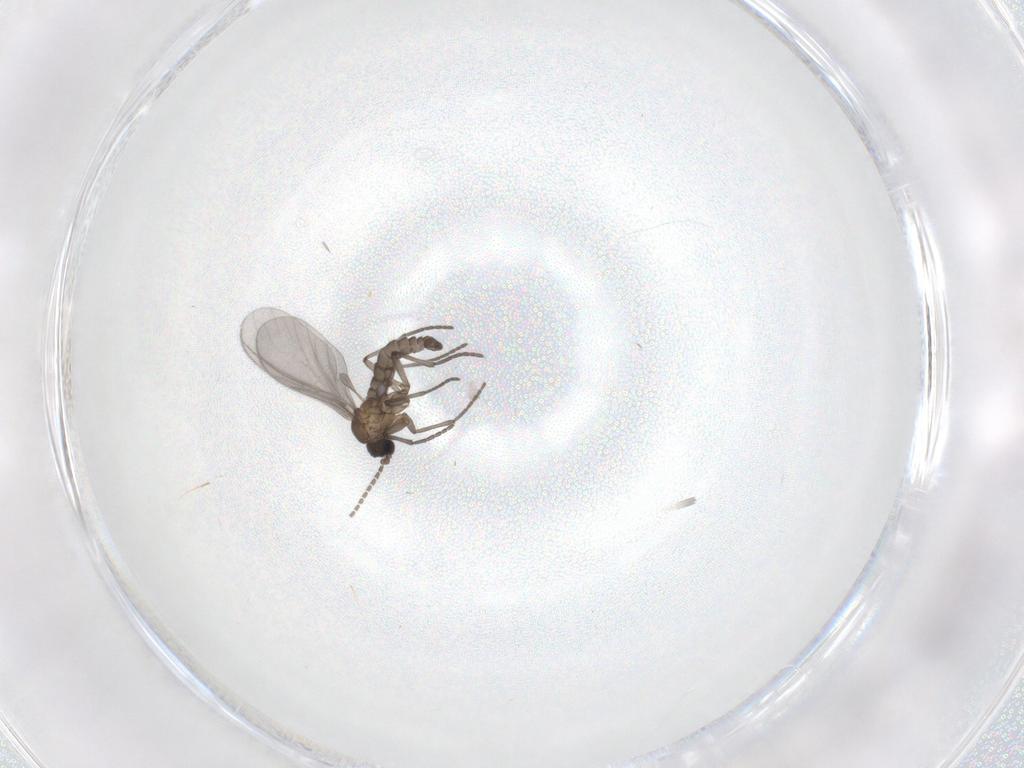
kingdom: Animalia
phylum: Arthropoda
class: Insecta
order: Diptera
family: Sciaridae
